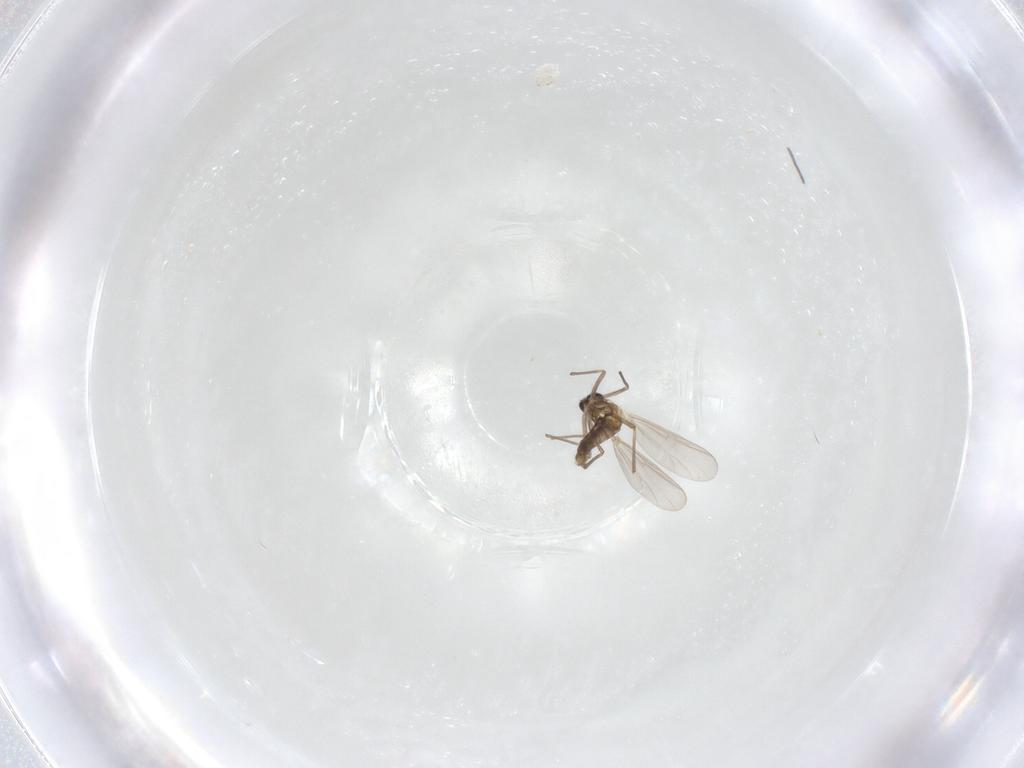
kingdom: Animalia
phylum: Arthropoda
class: Insecta
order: Diptera
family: Chironomidae
